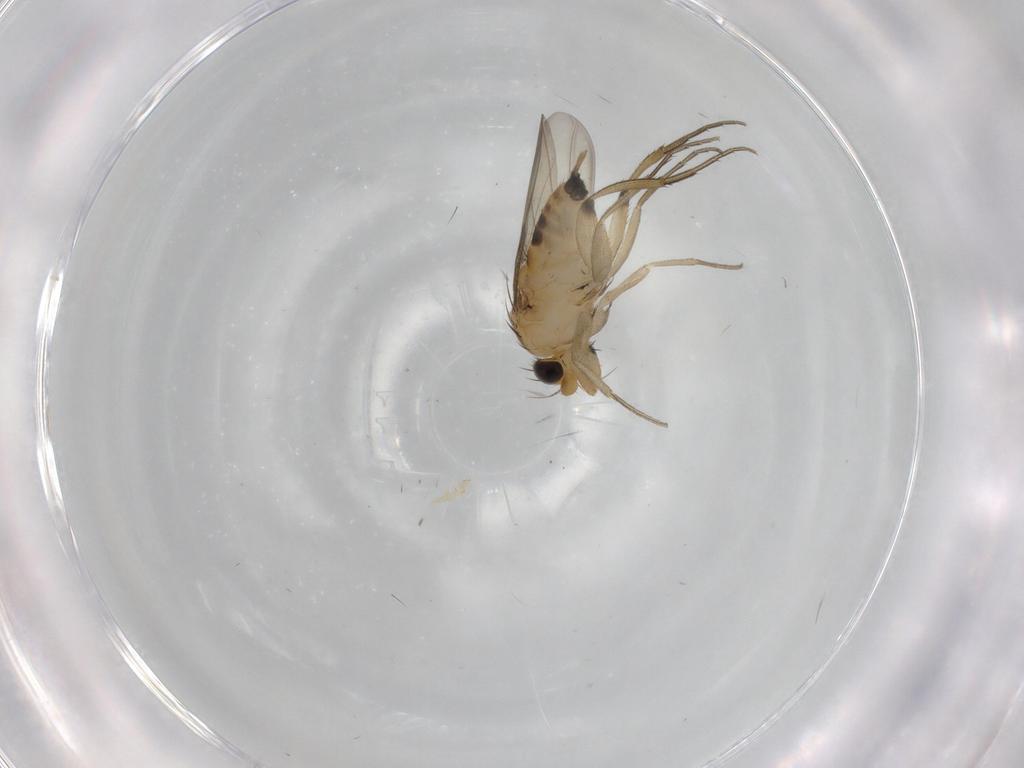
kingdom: Animalia
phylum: Arthropoda
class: Insecta
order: Diptera
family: Phoridae
